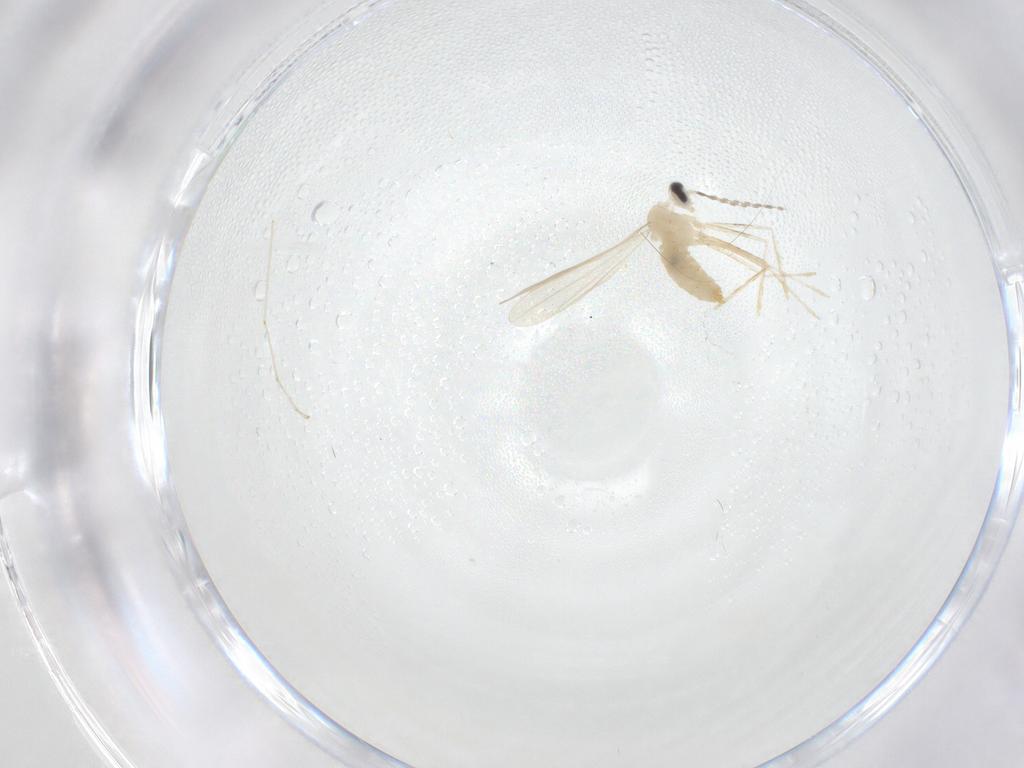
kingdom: Animalia
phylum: Arthropoda
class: Insecta
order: Diptera
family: Cecidomyiidae
